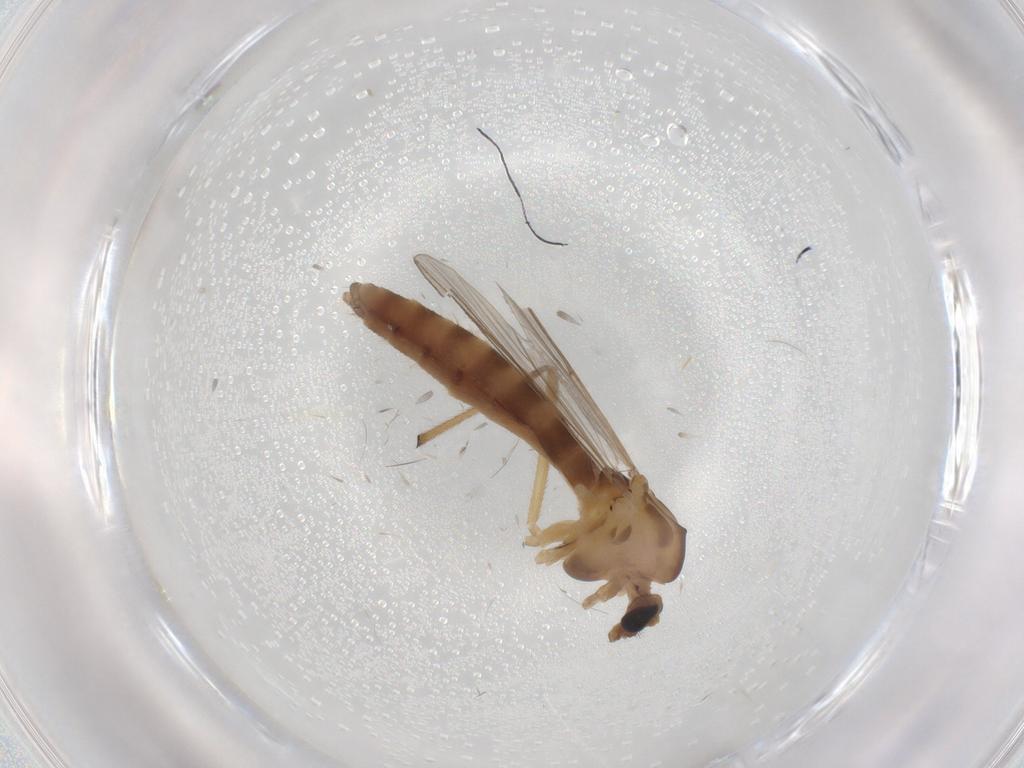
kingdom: Animalia
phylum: Arthropoda
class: Insecta
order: Diptera
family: Chironomidae
